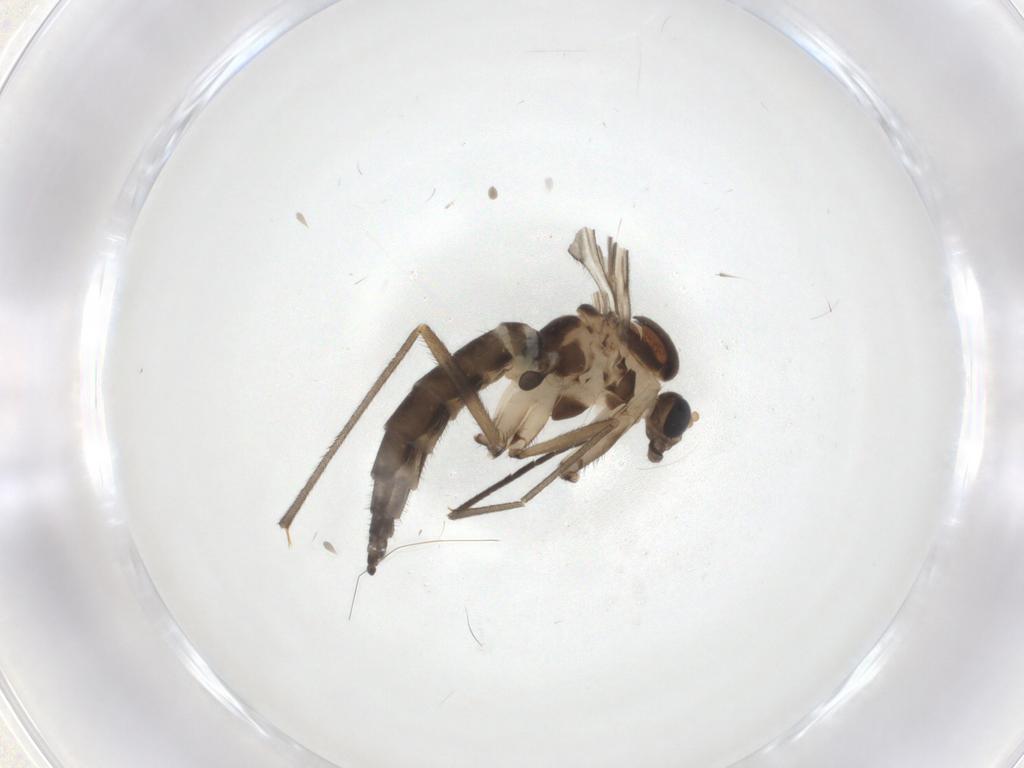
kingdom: Animalia
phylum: Arthropoda
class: Insecta
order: Diptera
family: Sciaridae
